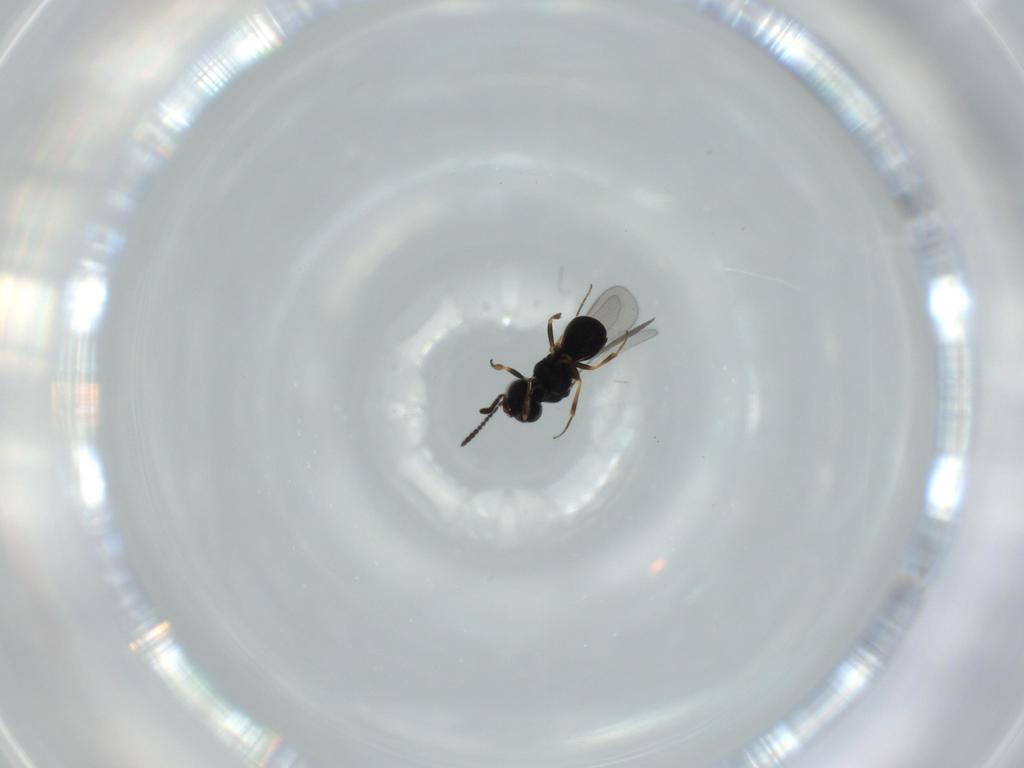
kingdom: Animalia
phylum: Arthropoda
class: Insecta
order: Hymenoptera
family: Scelionidae
